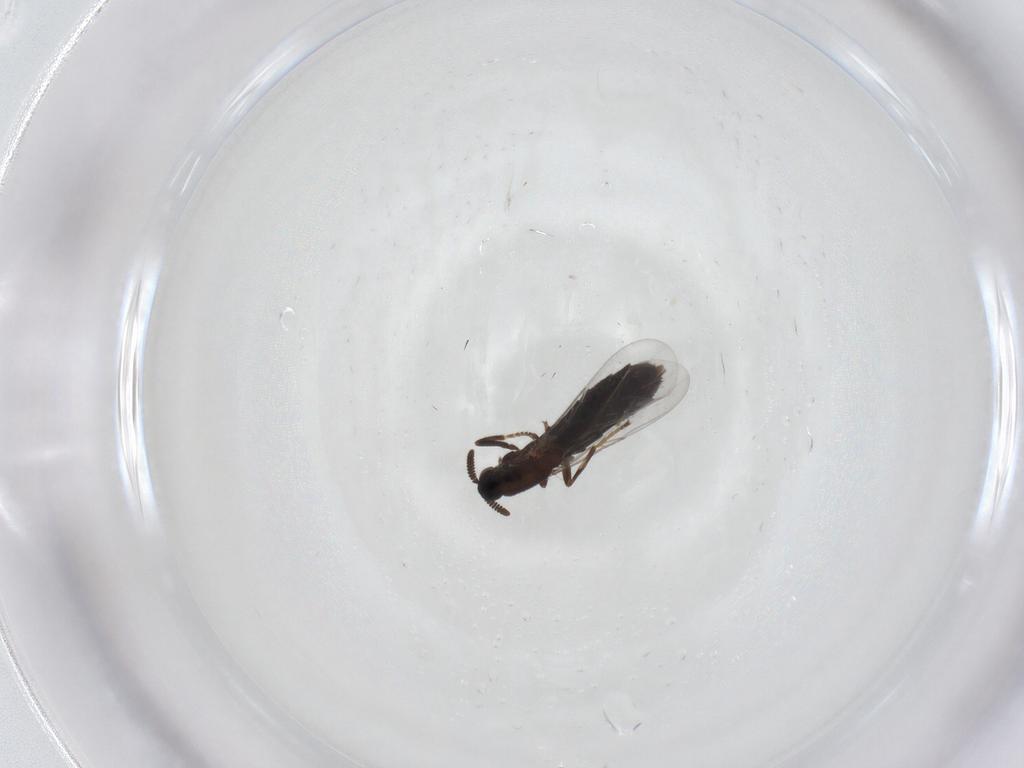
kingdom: Animalia
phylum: Arthropoda
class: Insecta
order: Diptera
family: Scatopsidae
